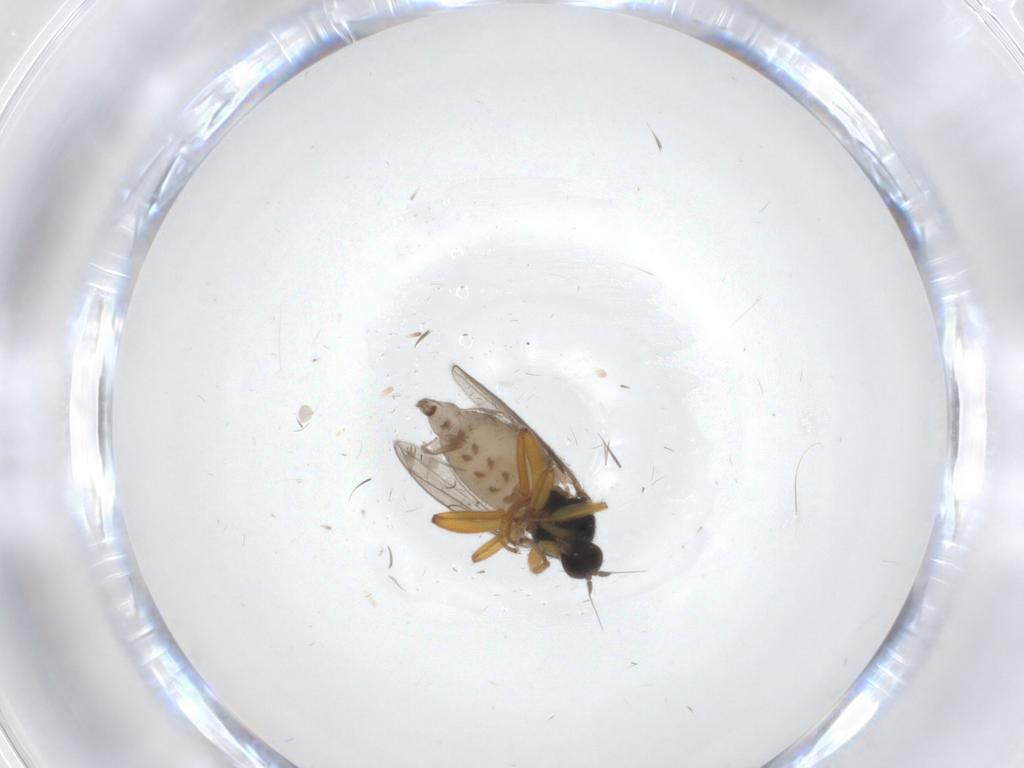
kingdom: Animalia
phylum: Arthropoda
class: Insecta
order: Diptera
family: Hybotidae
